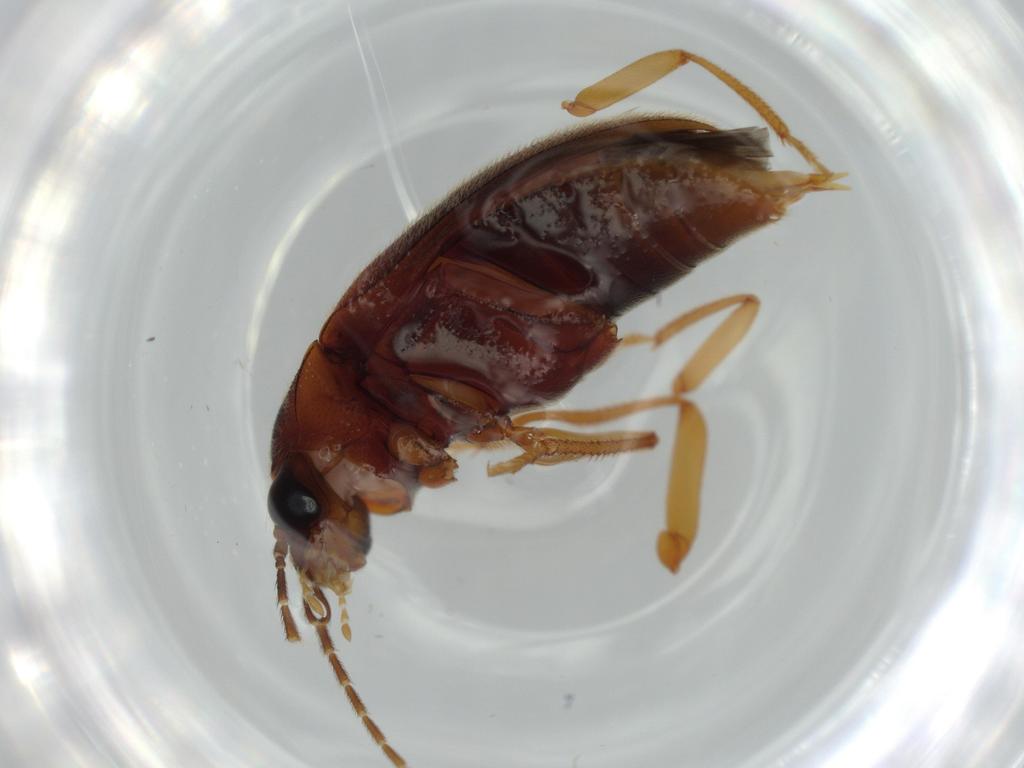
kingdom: Animalia
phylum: Arthropoda
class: Insecta
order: Coleoptera
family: Ptilodactylidae
